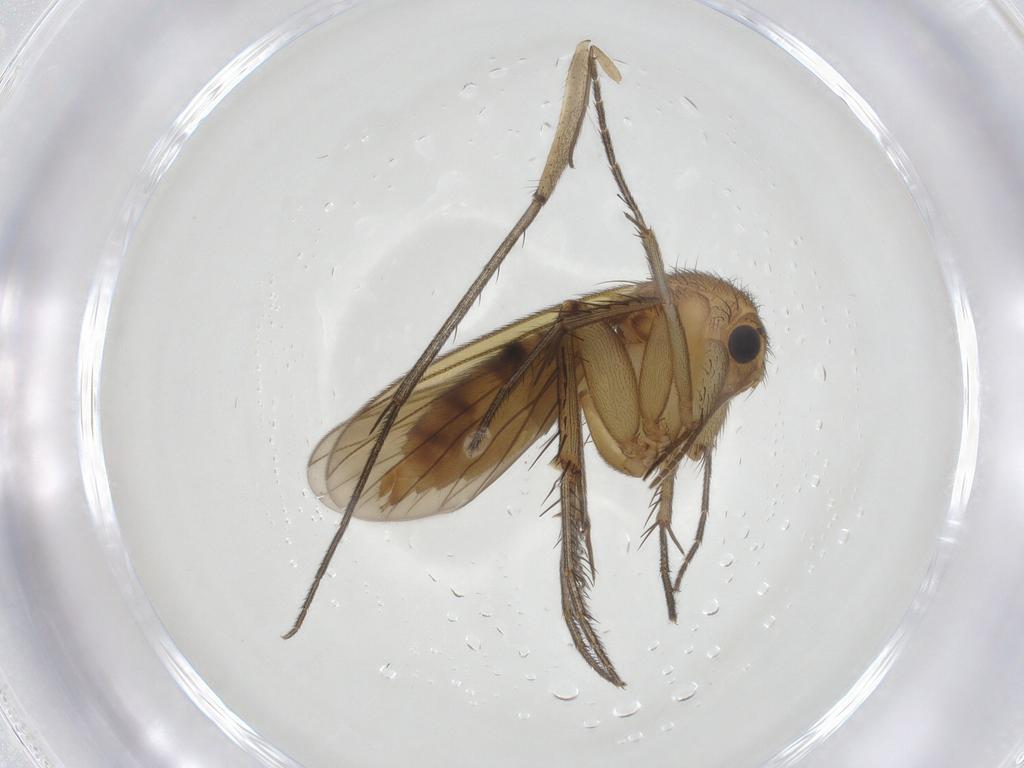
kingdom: Animalia
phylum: Arthropoda
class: Insecta
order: Diptera
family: Mycetophilidae
